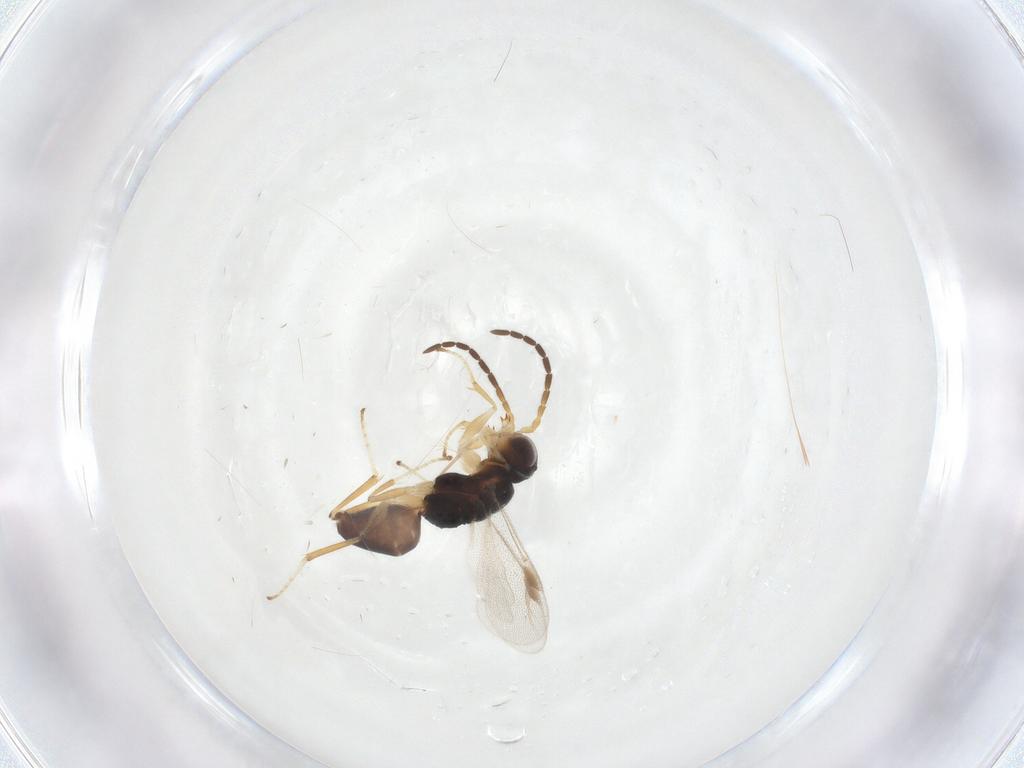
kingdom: Animalia
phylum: Arthropoda
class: Insecta
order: Hymenoptera
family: Dryinidae
